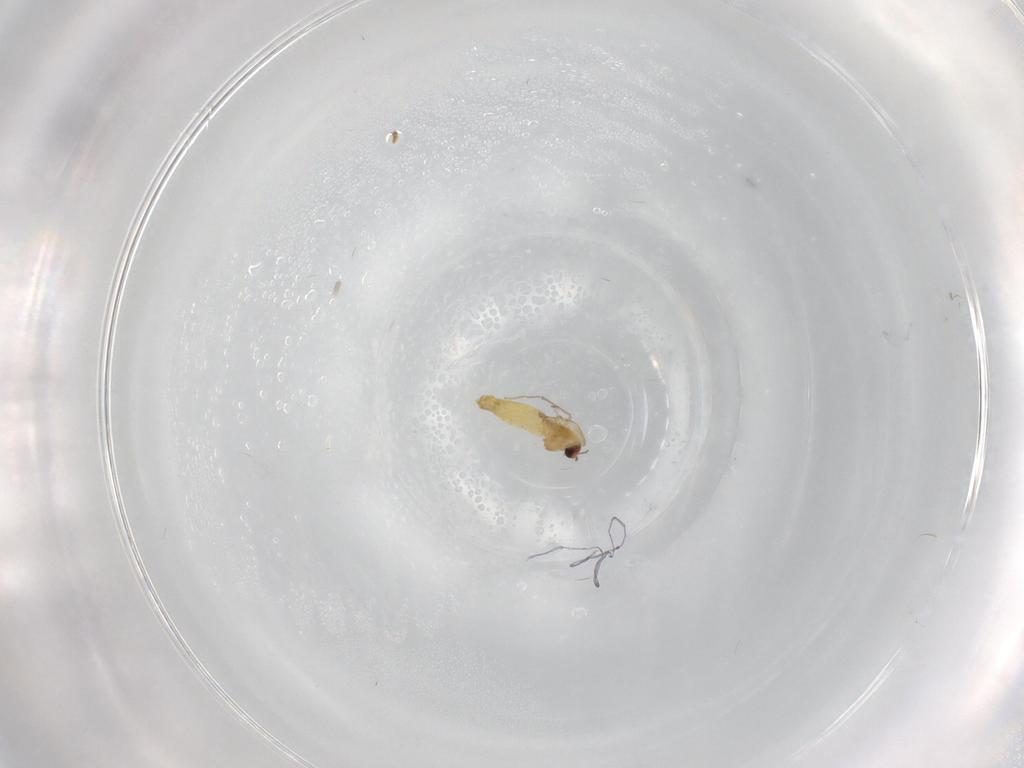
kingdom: Animalia
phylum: Arthropoda
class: Insecta
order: Diptera
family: Chironomidae
